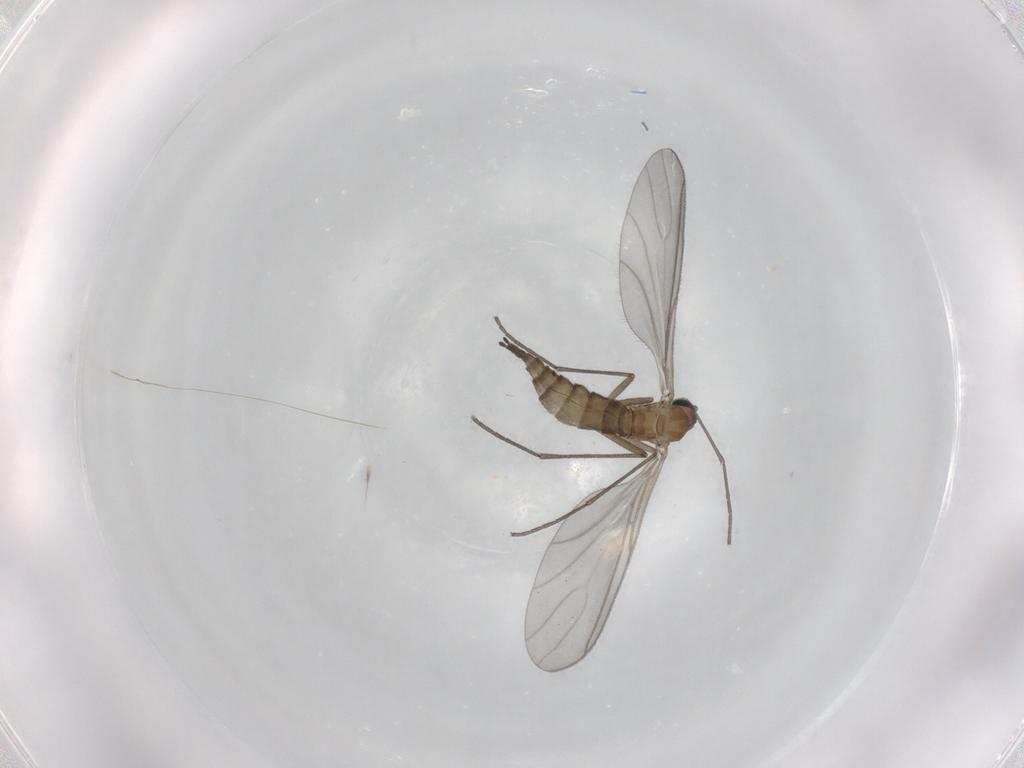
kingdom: Animalia
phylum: Arthropoda
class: Insecta
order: Diptera
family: Sciaridae
